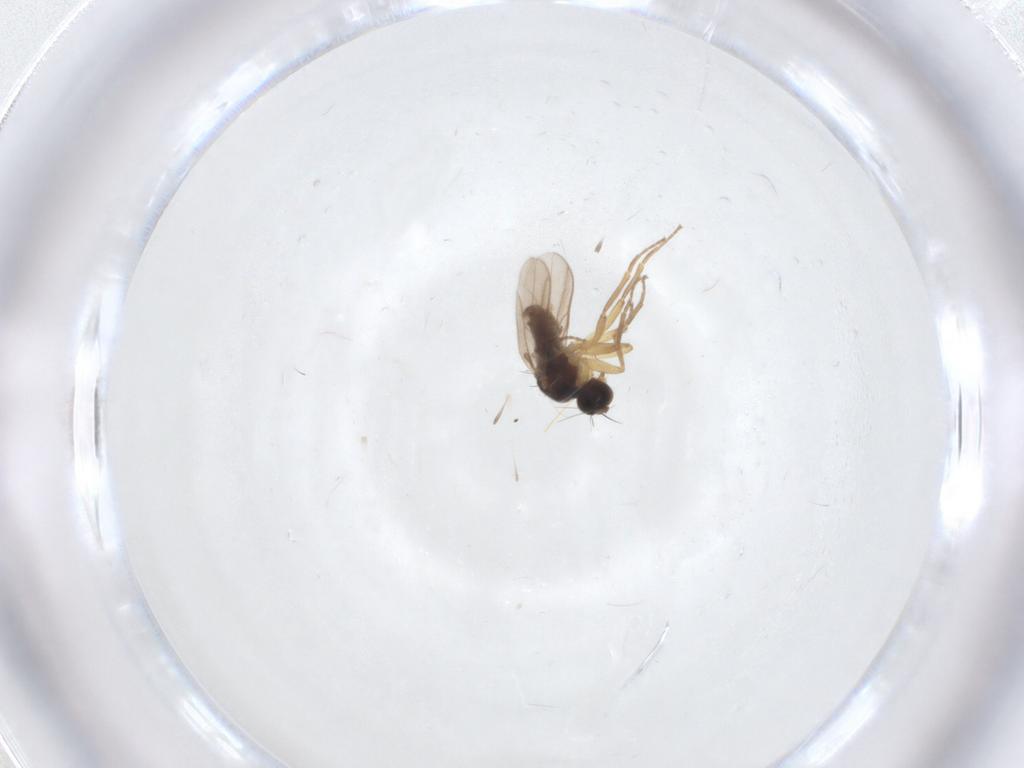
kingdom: Animalia
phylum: Arthropoda
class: Insecta
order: Diptera
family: Hybotidae
